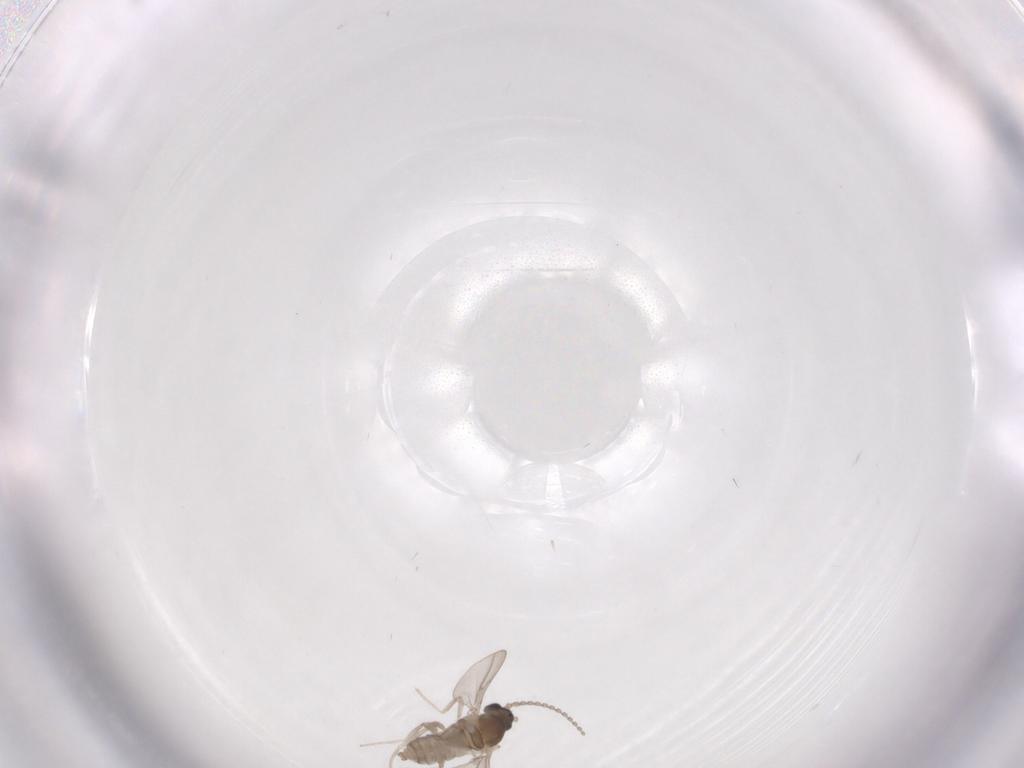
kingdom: Animalia
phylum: Arthropoda
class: Insecta
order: Diptera
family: Cecidomyiidae
